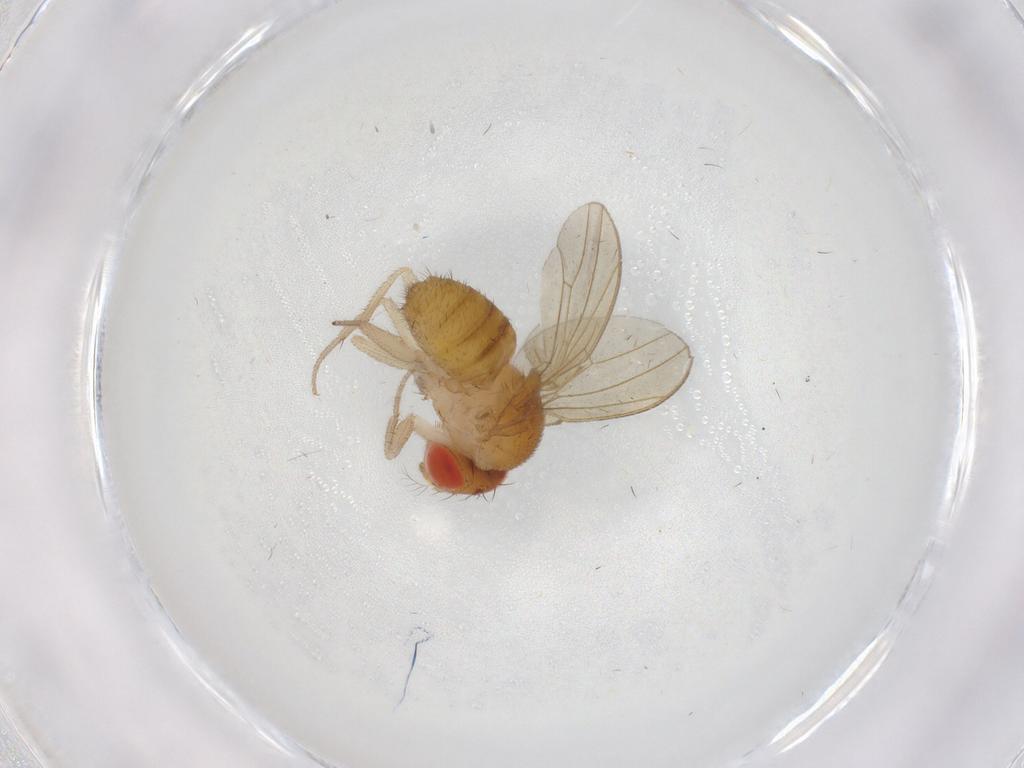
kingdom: Animalia
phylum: Arthropoda
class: Insecta
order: Diptera
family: Drosophilidae
